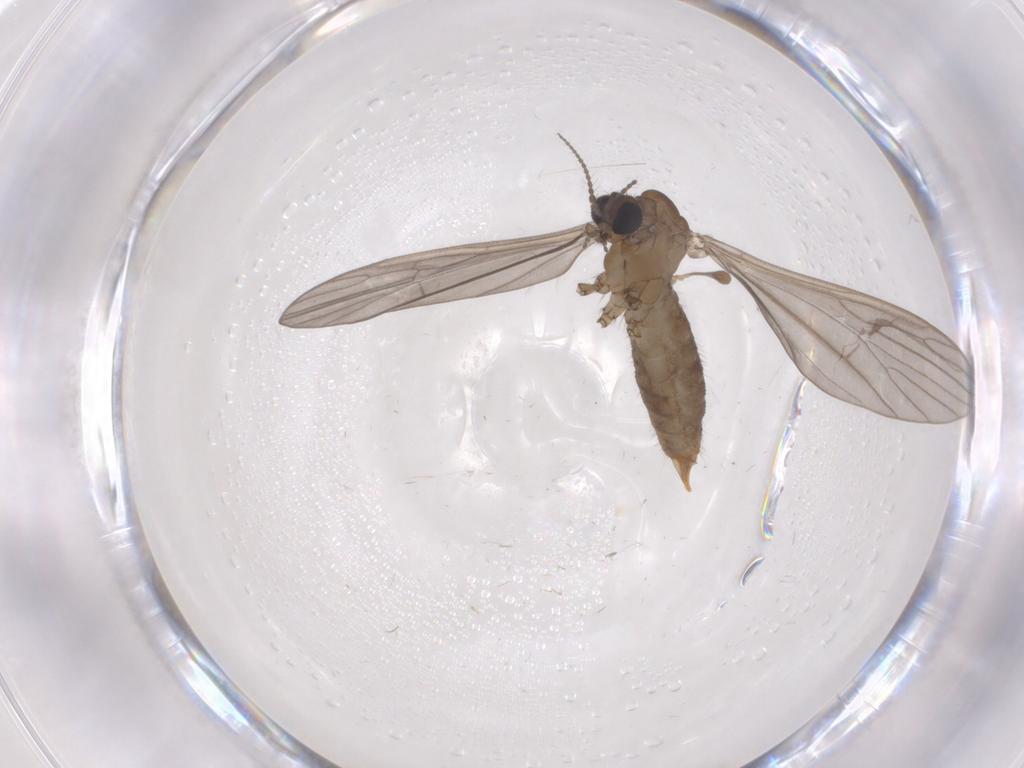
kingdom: Animalia
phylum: Arthropoda
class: Insecta
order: Diptera
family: Limoniidae
